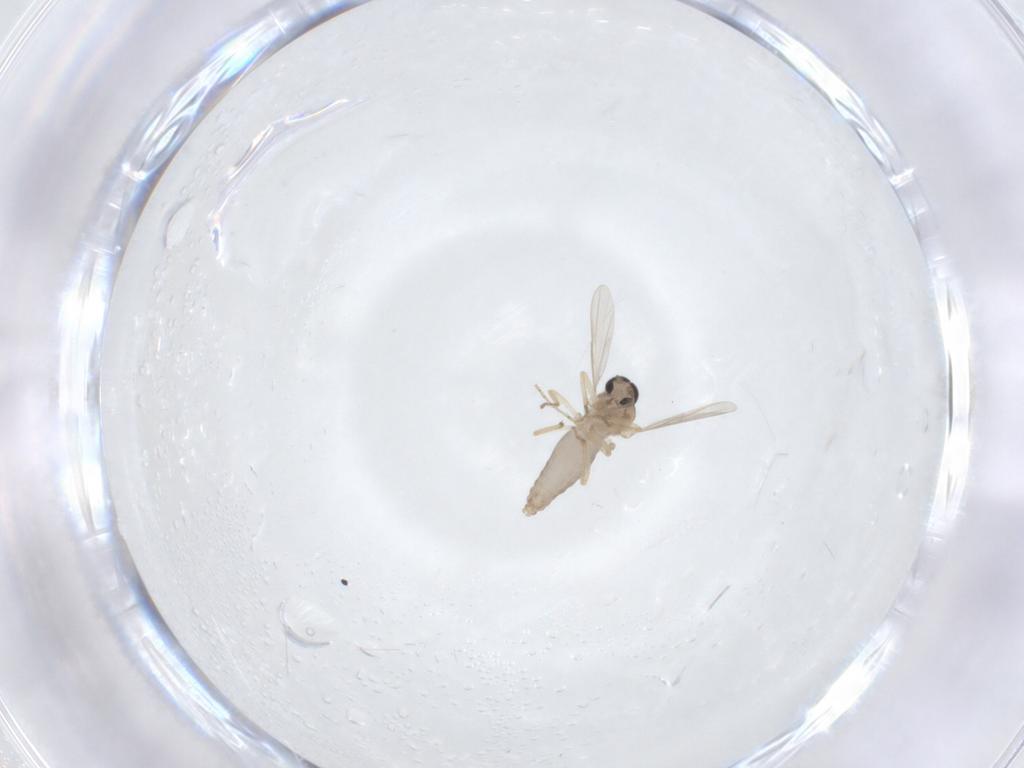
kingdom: Animalia
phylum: Arthropoda
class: Insecta
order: Diptera
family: Ceratopogonidae
